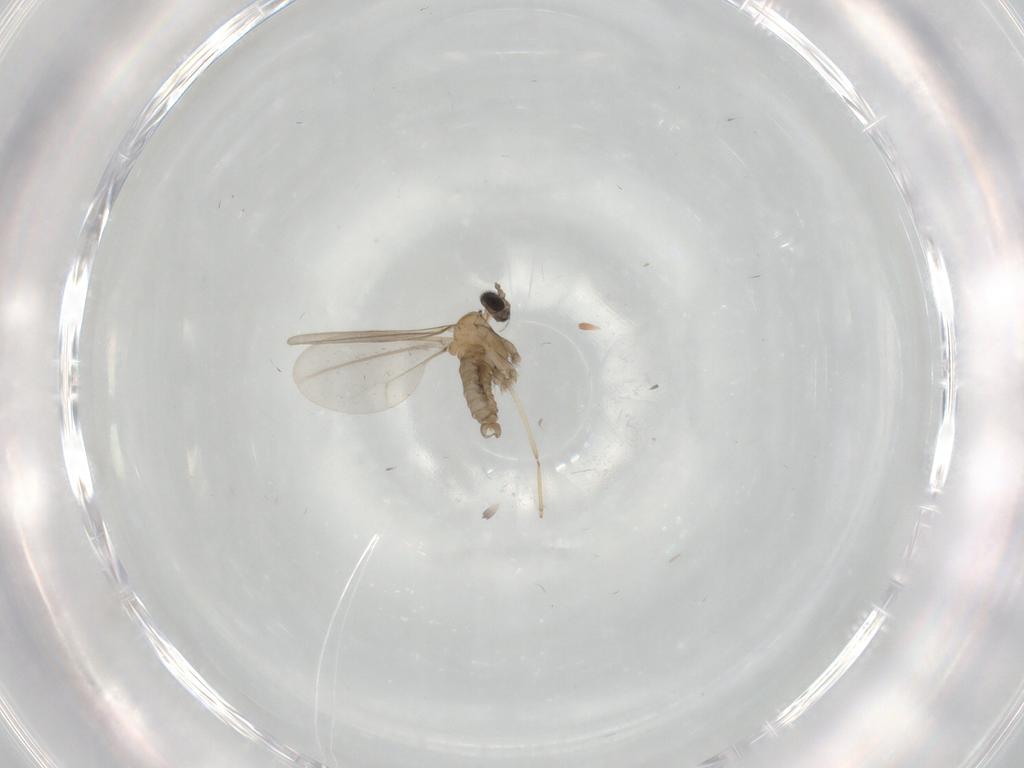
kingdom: Animalia
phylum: Arthropoda
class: Insecta
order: Diptera
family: Cecidomyiidae
